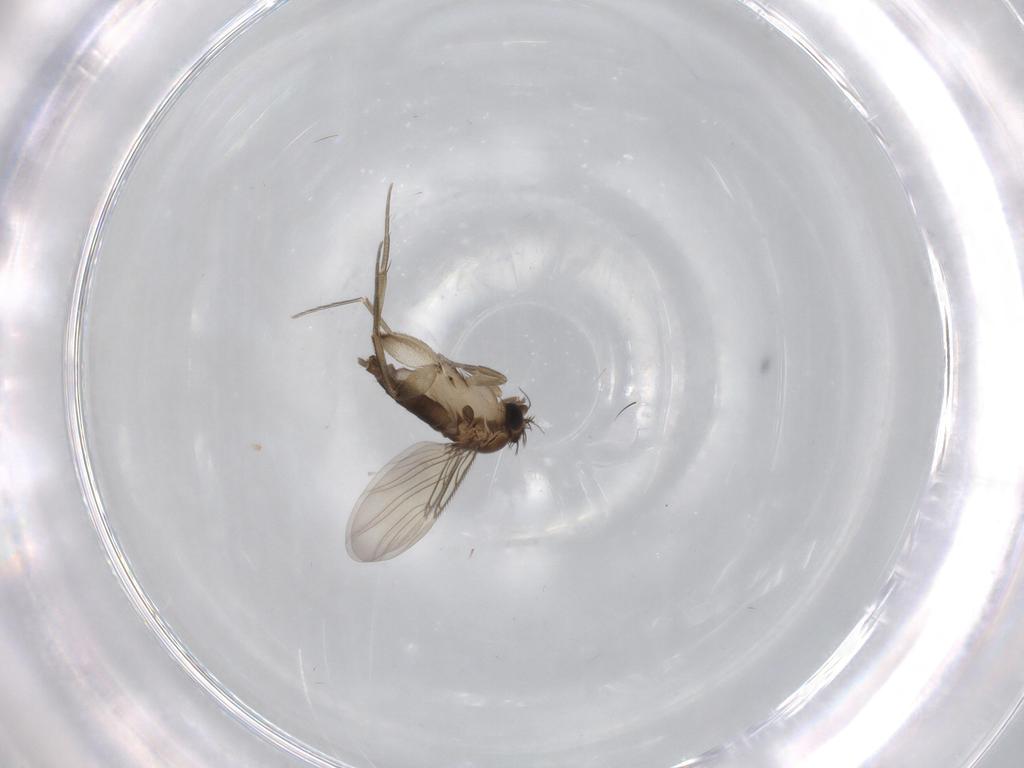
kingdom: Animalia
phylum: Arthropoda
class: Insecta
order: Diptera
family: Phoridae
